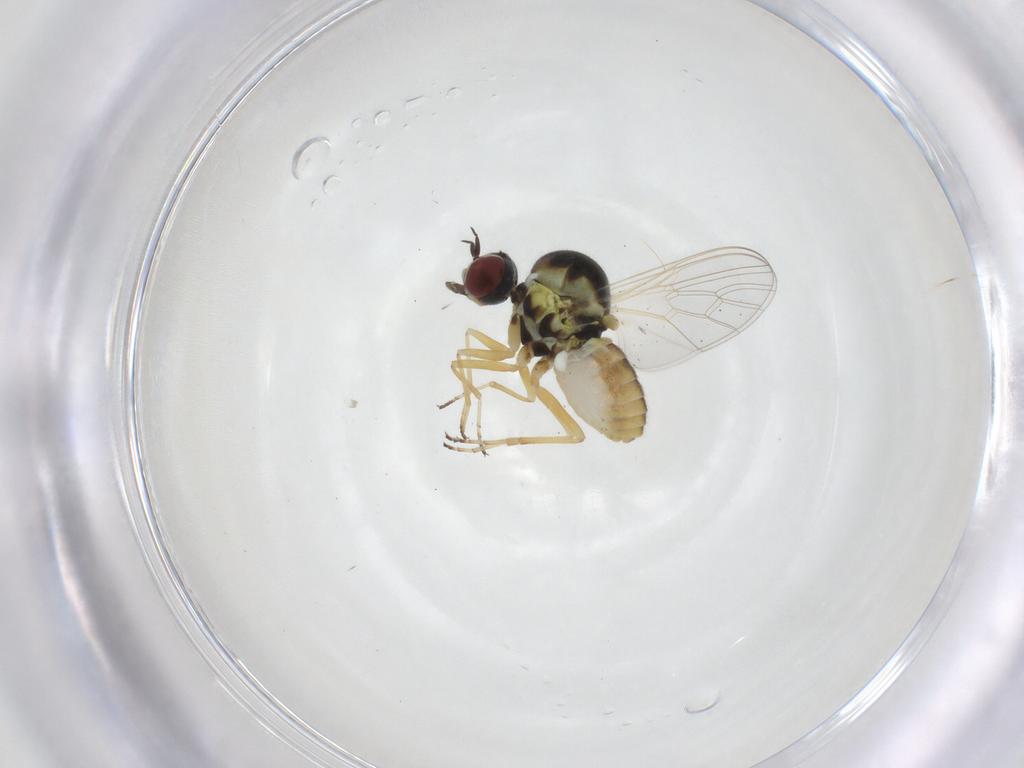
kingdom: Animalia
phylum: Arthropoda
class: Insecta
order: Diptera
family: Bombyliidae
